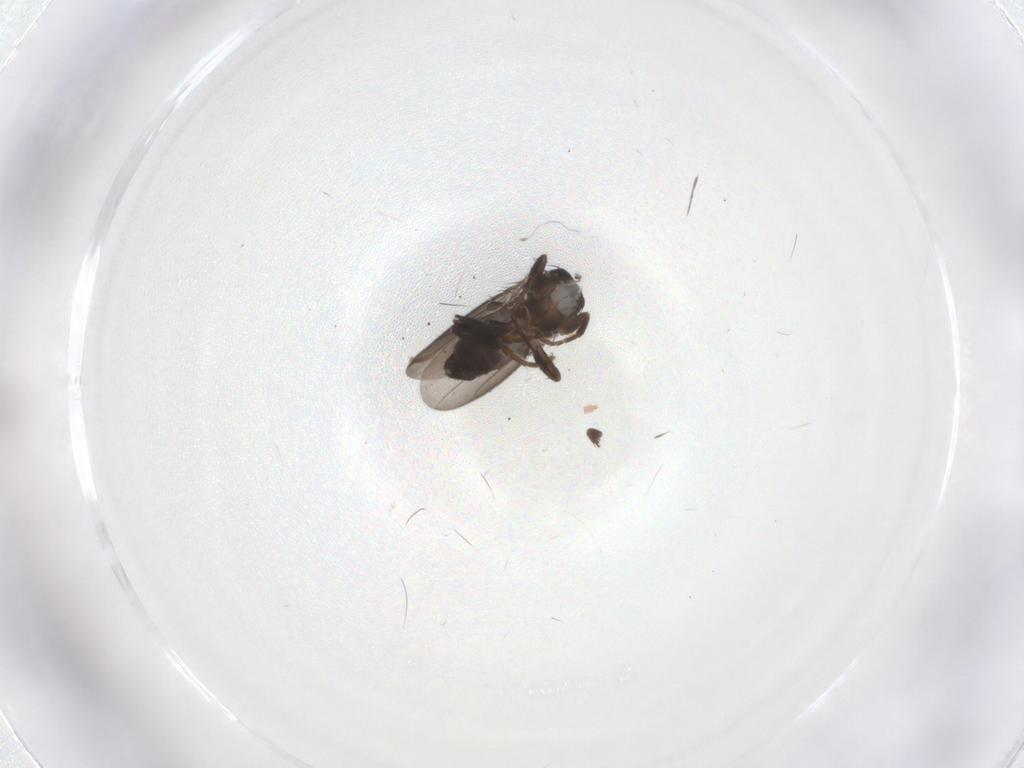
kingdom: Animalia
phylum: Arthropoda
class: Insecta
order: Diptera
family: Sphaeroceridae
